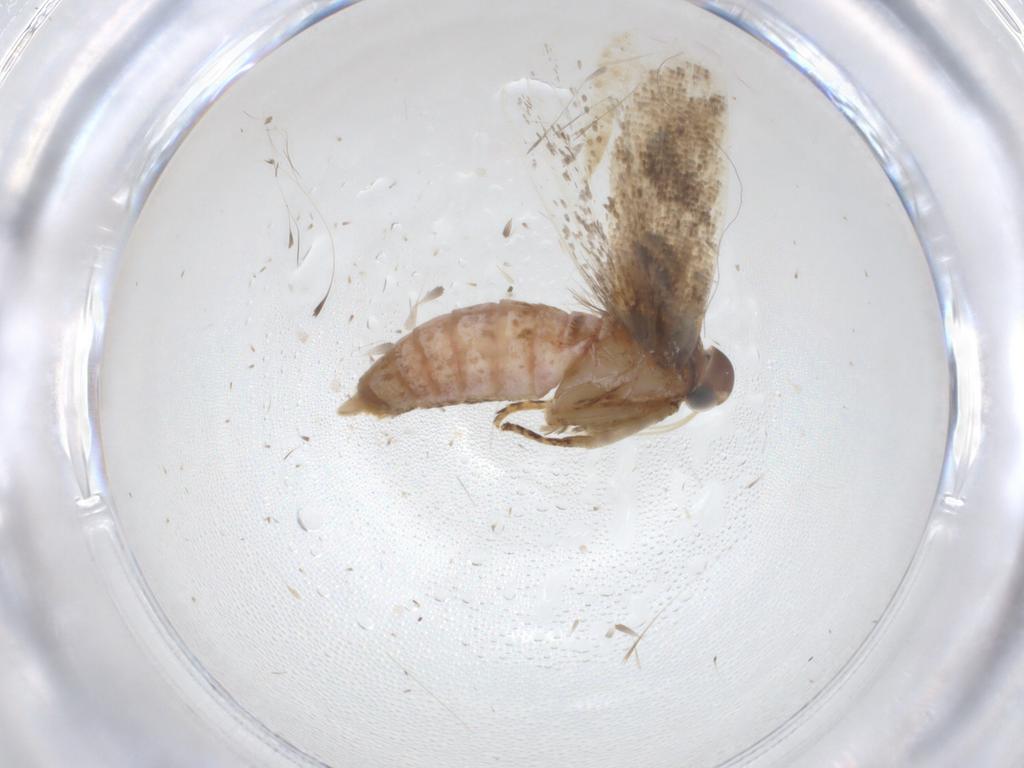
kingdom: Animalia
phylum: Arthropoda
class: Insecta
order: Lepidoptera
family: Gelechiidae
